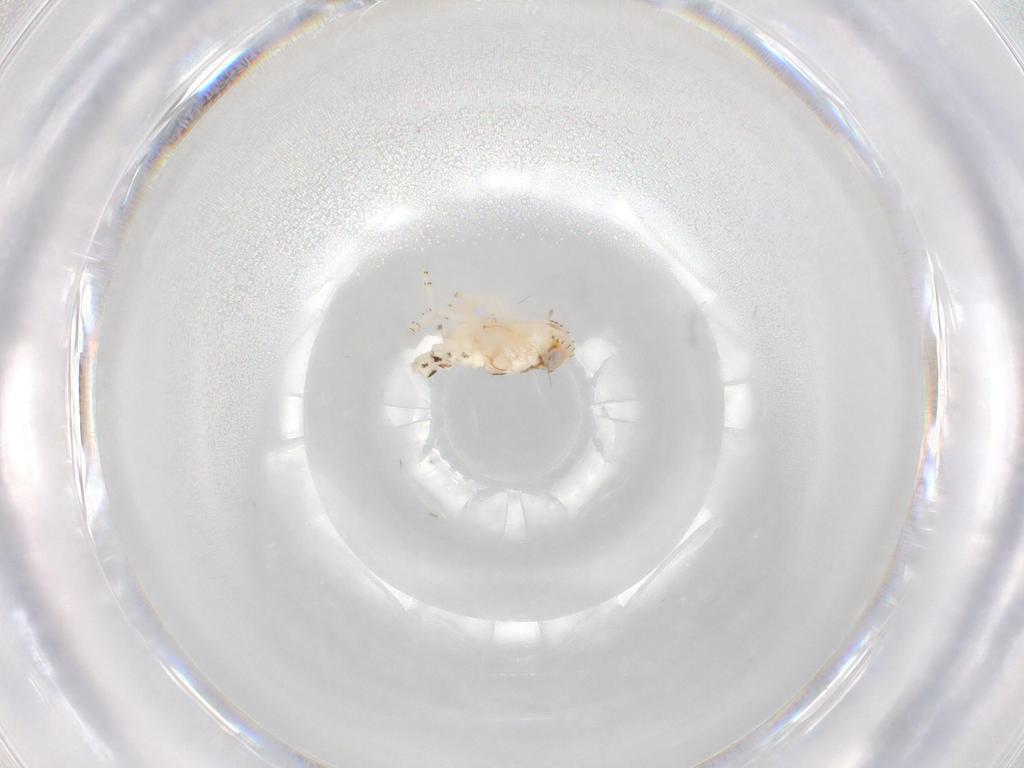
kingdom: Animalia
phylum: Arthropoda
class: Insecta
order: Hemiptera
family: Nogodinidae
